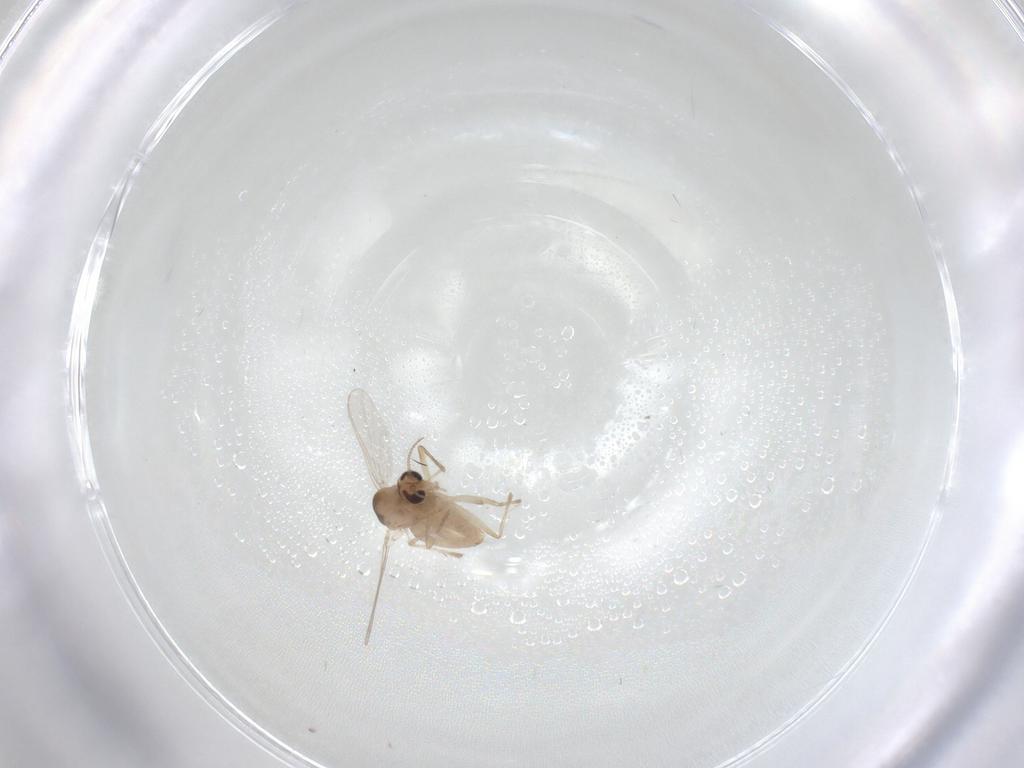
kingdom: Animalia
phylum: Arthropoda
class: Insecta
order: Diptera
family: Chironomidae
